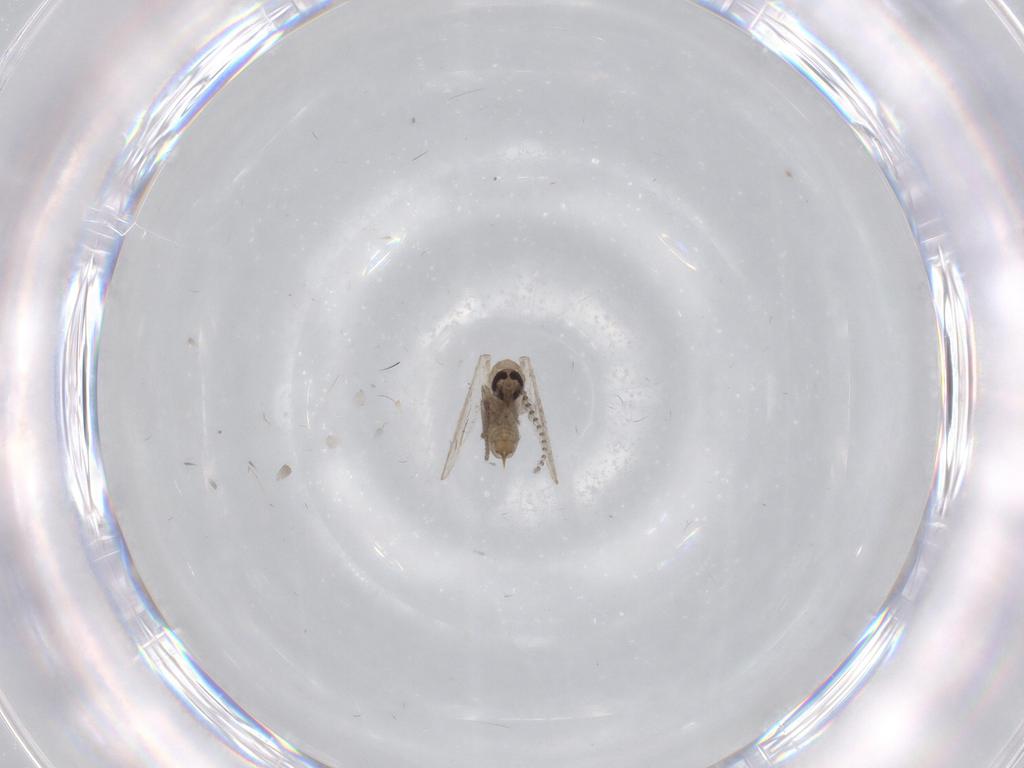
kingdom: Animalia
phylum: Arthropoda
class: Insecta
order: Diptera
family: Psychodidae
